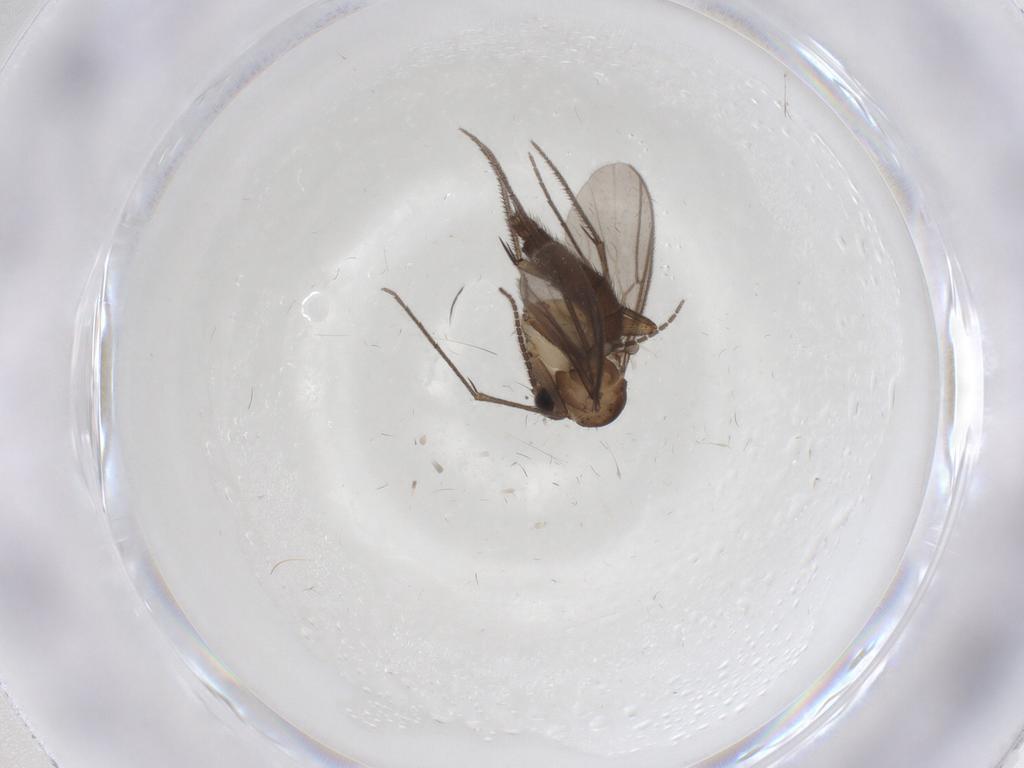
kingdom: Animalia
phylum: Arthropoda
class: Insecta
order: Diptera
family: Mycetophilidae
